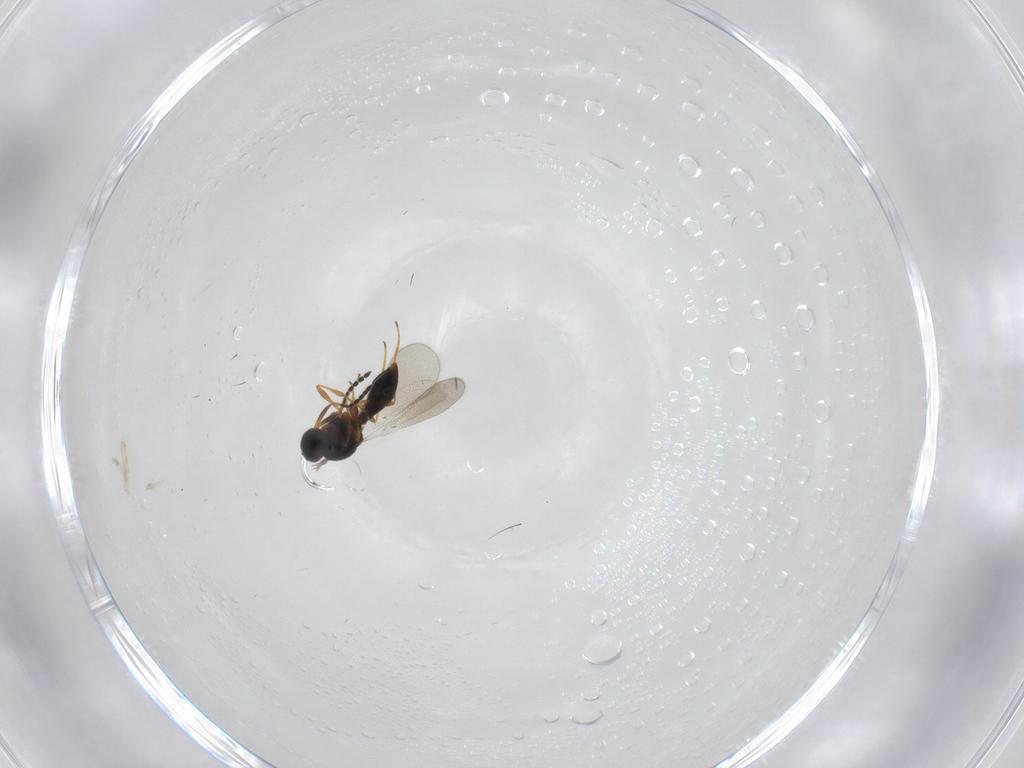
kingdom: Animalia
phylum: Arthropoda
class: Insecta
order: Hymenoptera
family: Platygastridae
